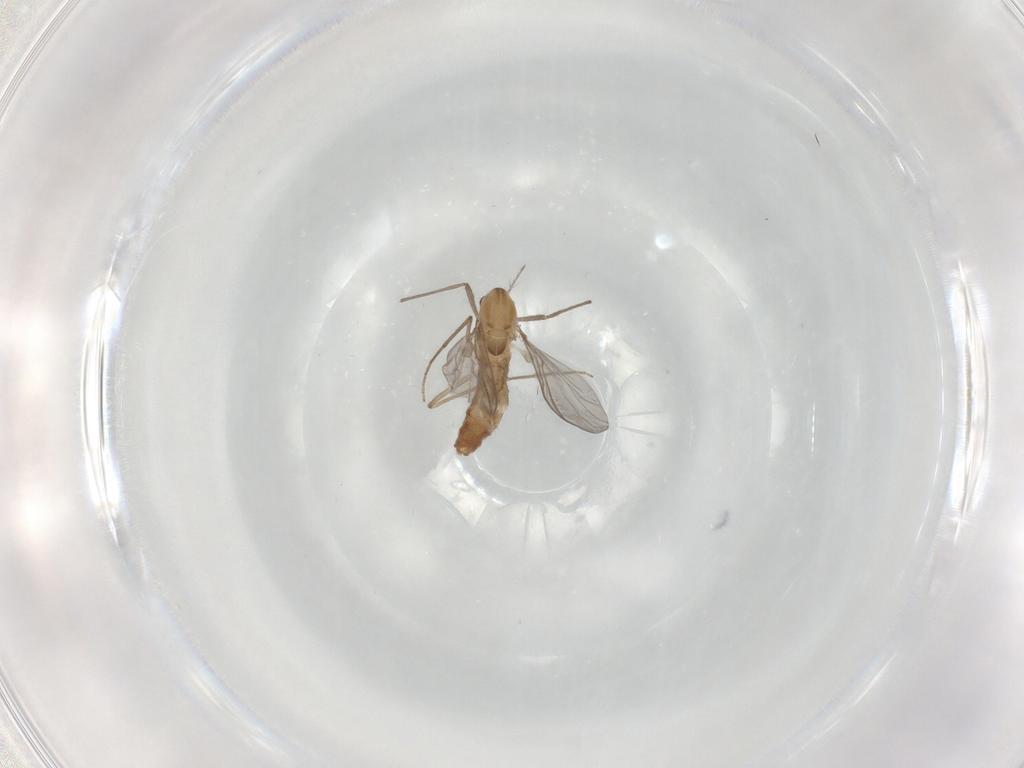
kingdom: Animalia
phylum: Arthropoda
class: Insecta
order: Diptera
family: Chironomidae
